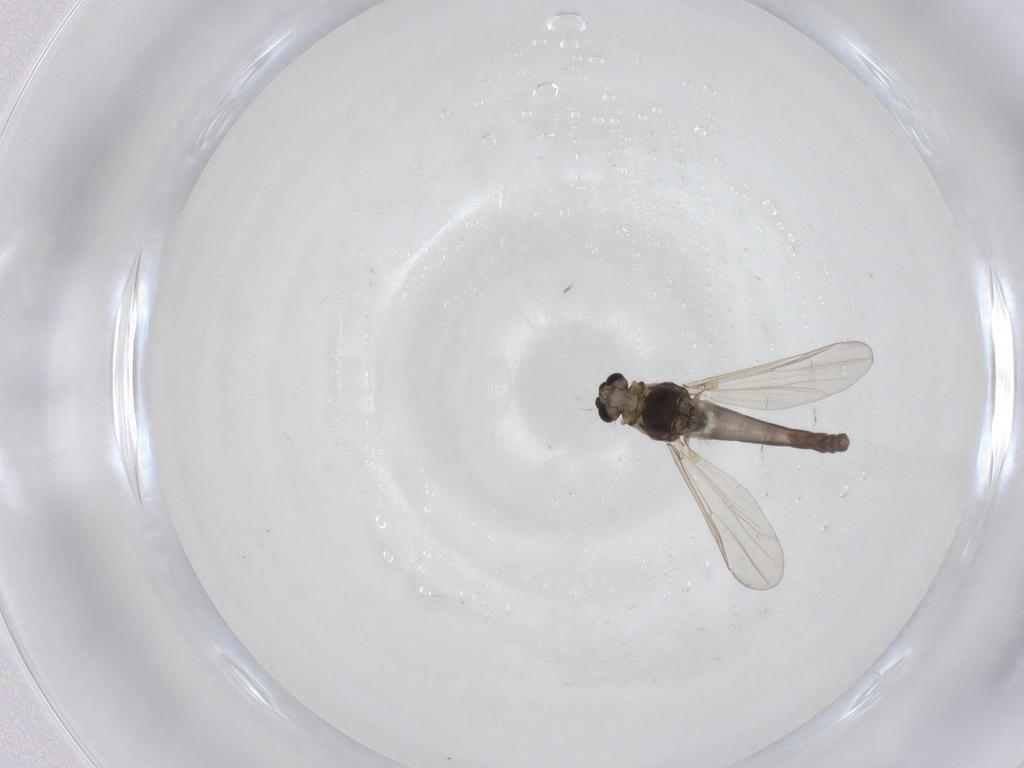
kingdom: Animalia
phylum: Arthropoda
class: Insecta
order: Diptera
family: Chironomidae
